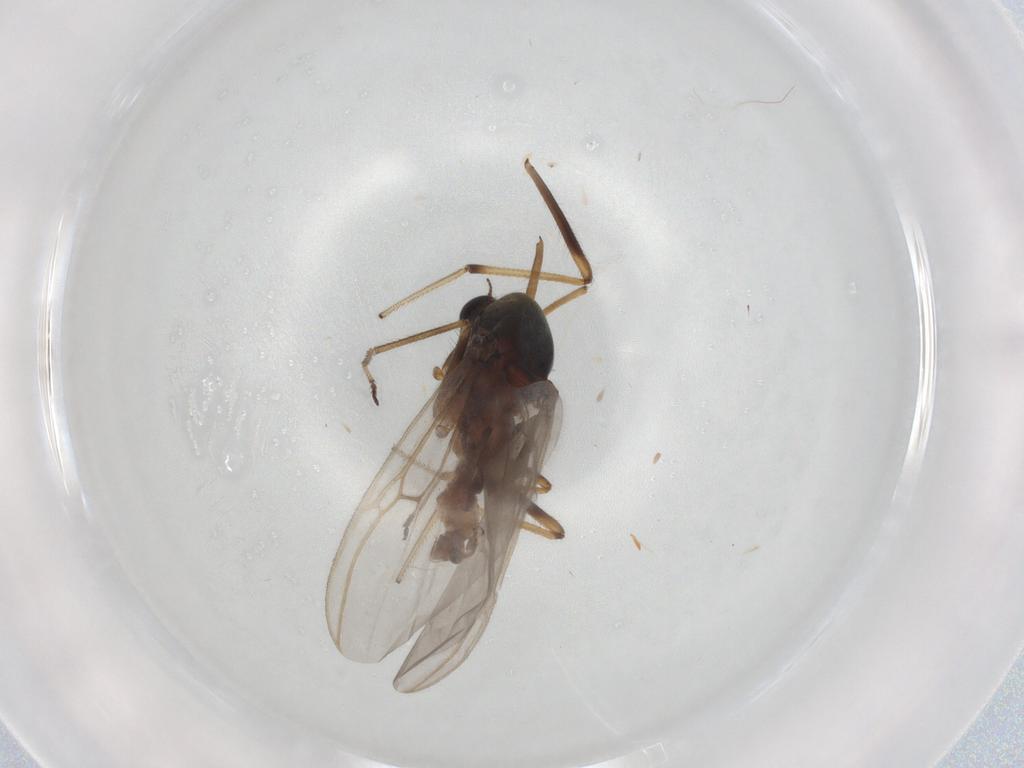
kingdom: Animalia
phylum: Arthropoda
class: Insecta
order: Diptera
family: Ceratopogonidae
